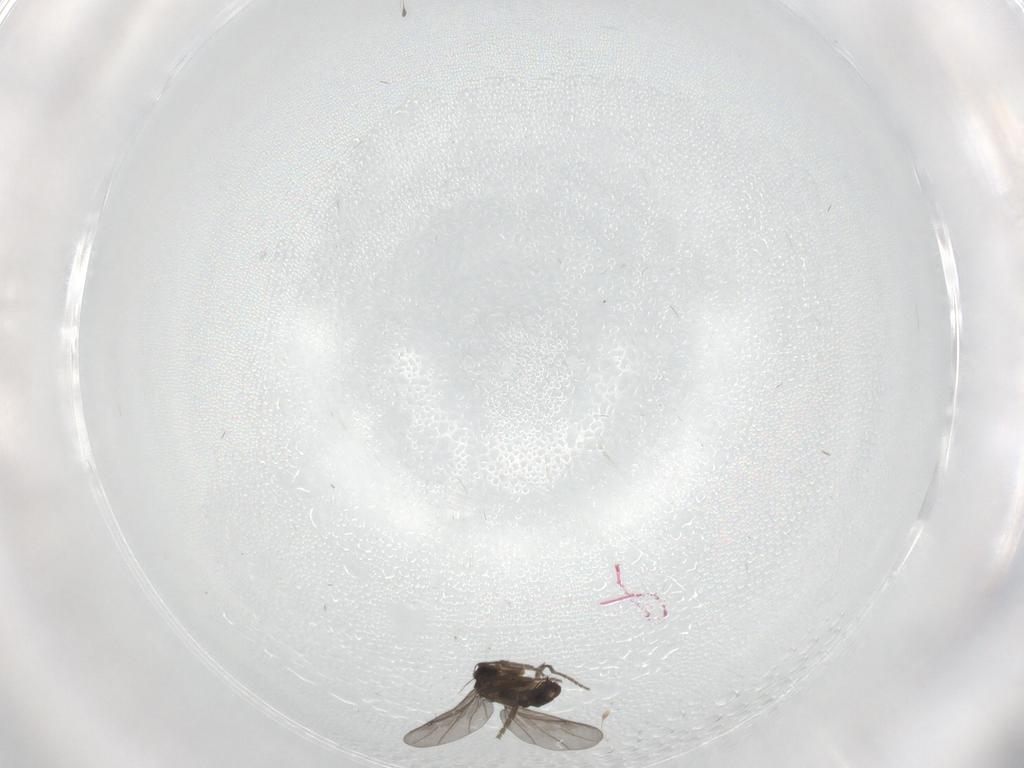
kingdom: Animalia
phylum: Arthropoda
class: Insecta
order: Diptera
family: Phoridae
